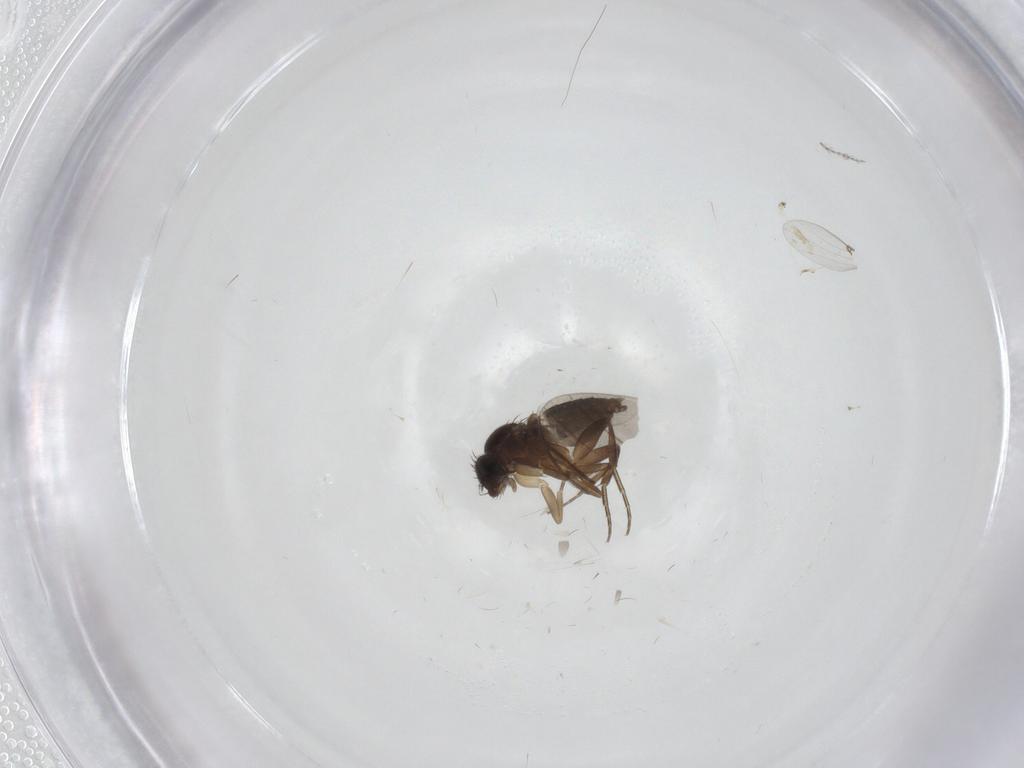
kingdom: Animalia
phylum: Arthropoda
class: Insecta
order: Diptera
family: Phoridae
